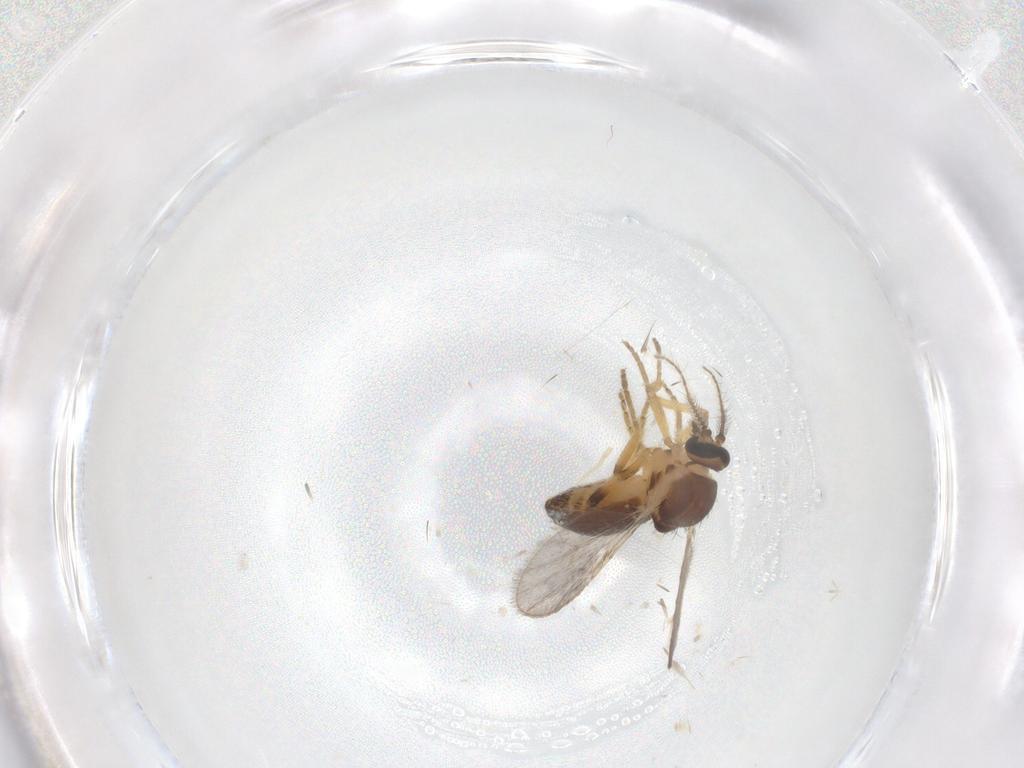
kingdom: Animalia
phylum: Arthropoda
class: Insecta
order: Diptera
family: Ceratopogonidae
